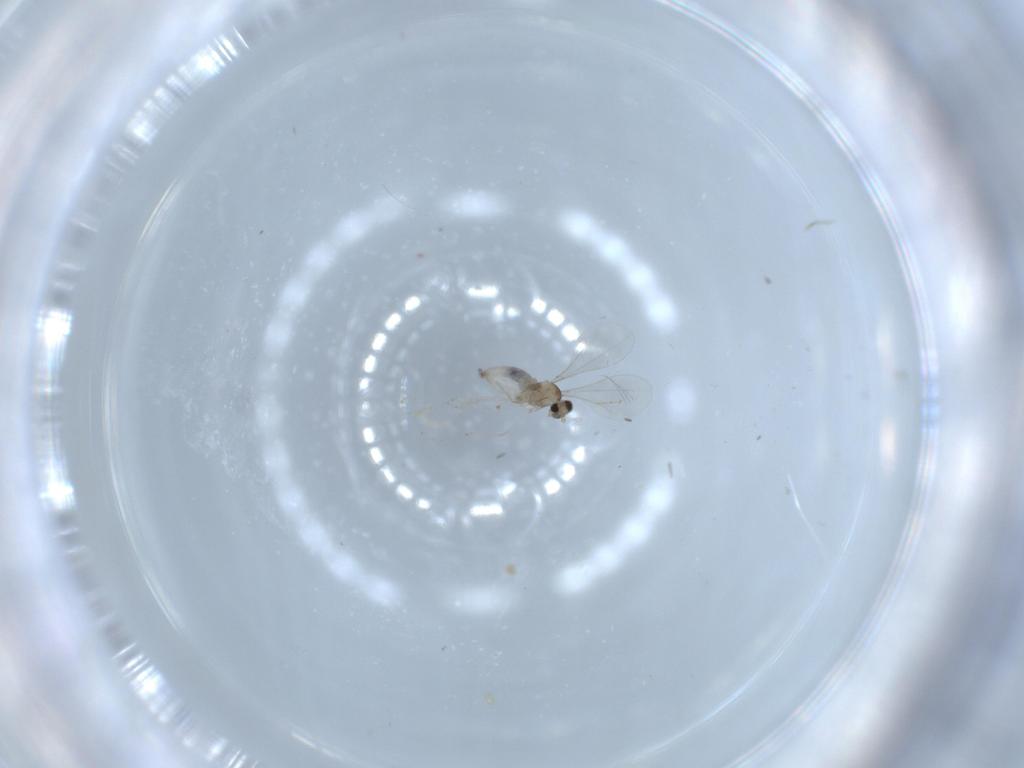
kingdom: Animalia
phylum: Arthropoda
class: Insecta
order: Diptera
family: Cecidomyiidae
